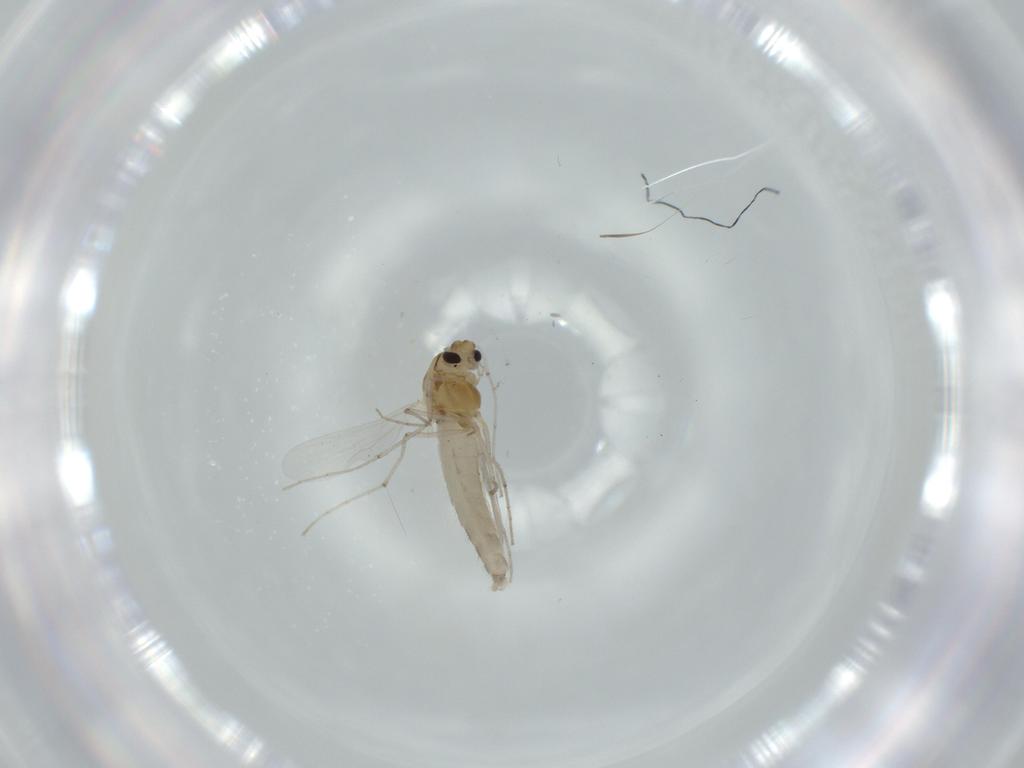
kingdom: Animalia
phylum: Arthropoda
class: Insecta
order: Diptera
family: Chironomidae
